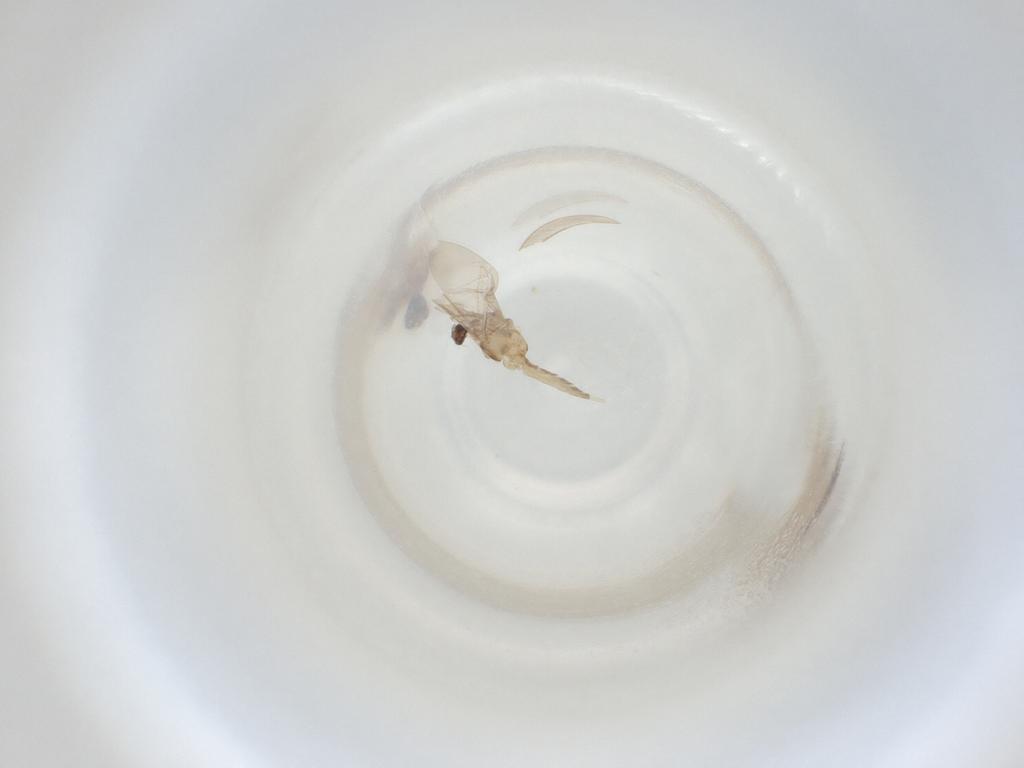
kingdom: Animalia
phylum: Arthropoda
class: Insecta
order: Diptera
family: Cecidomyiidae
